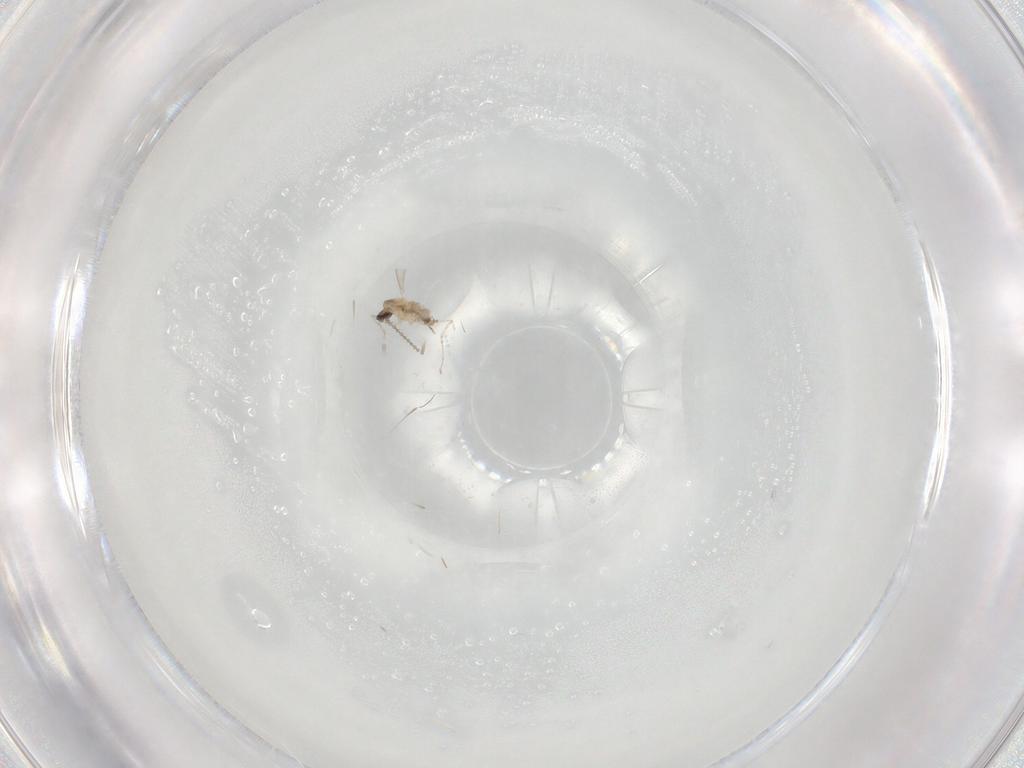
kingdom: Animalia
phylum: Arthropoda
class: Insecta
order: Diptera
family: Cecidomyiidae
